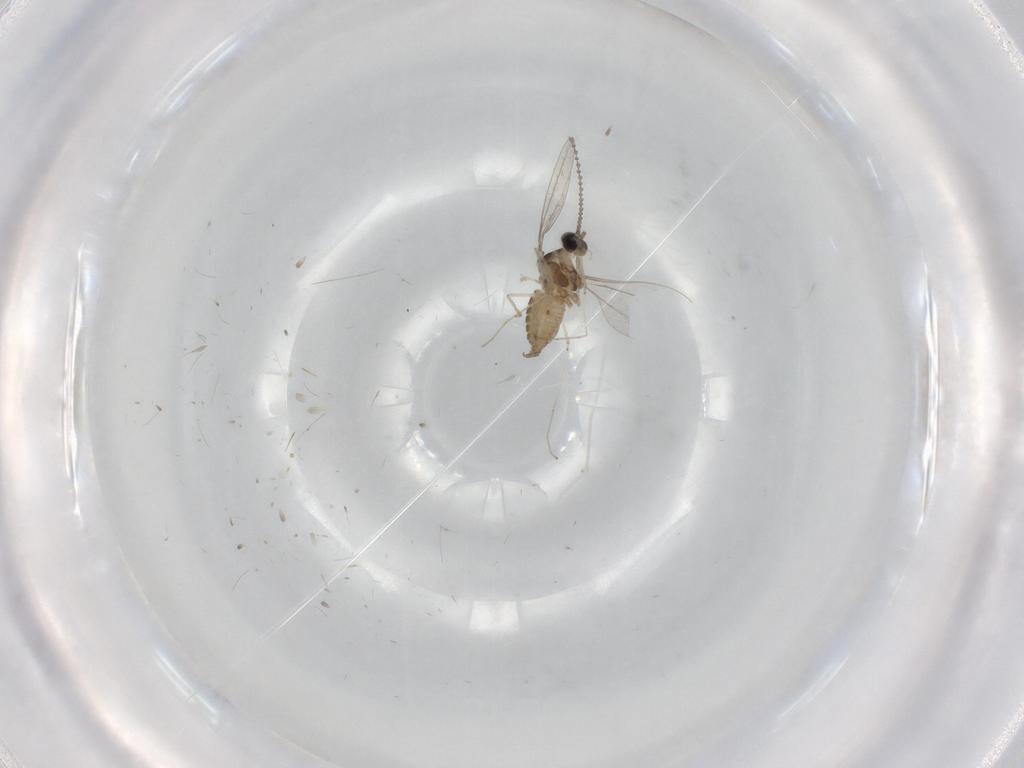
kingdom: Animalia
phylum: Arthropoda
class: Insecta
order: Diptera
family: Cecidomyiidae
